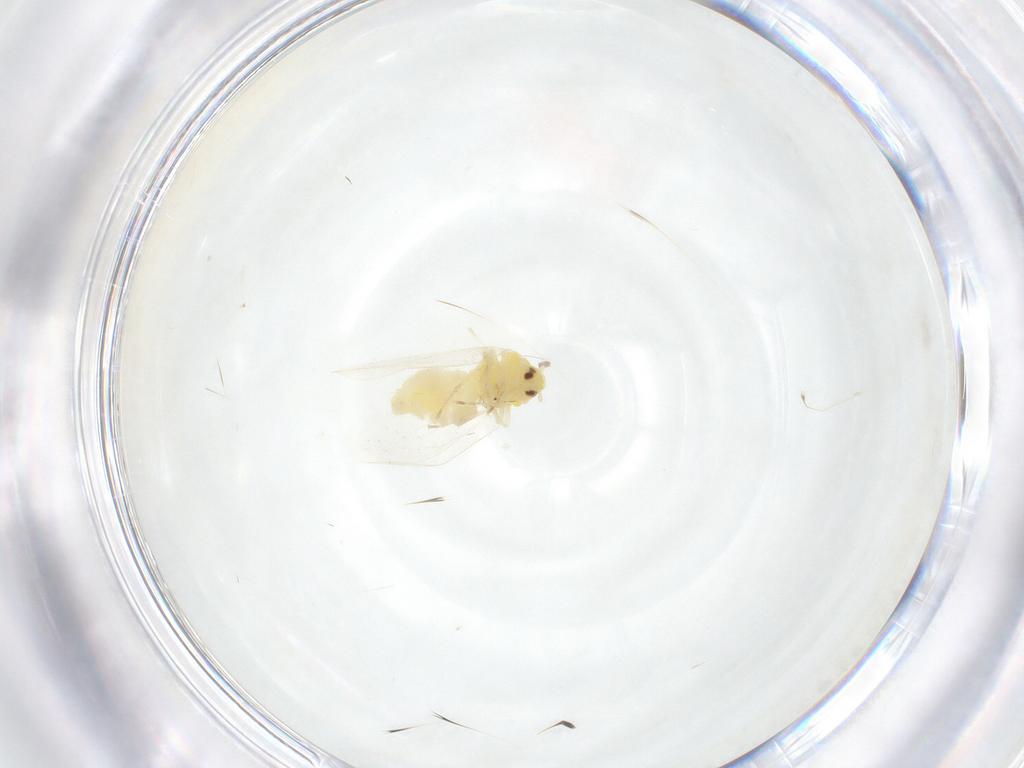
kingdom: Animalia
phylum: Arthropoda
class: Insecta
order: Hemiptera
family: Aleyrodidae
